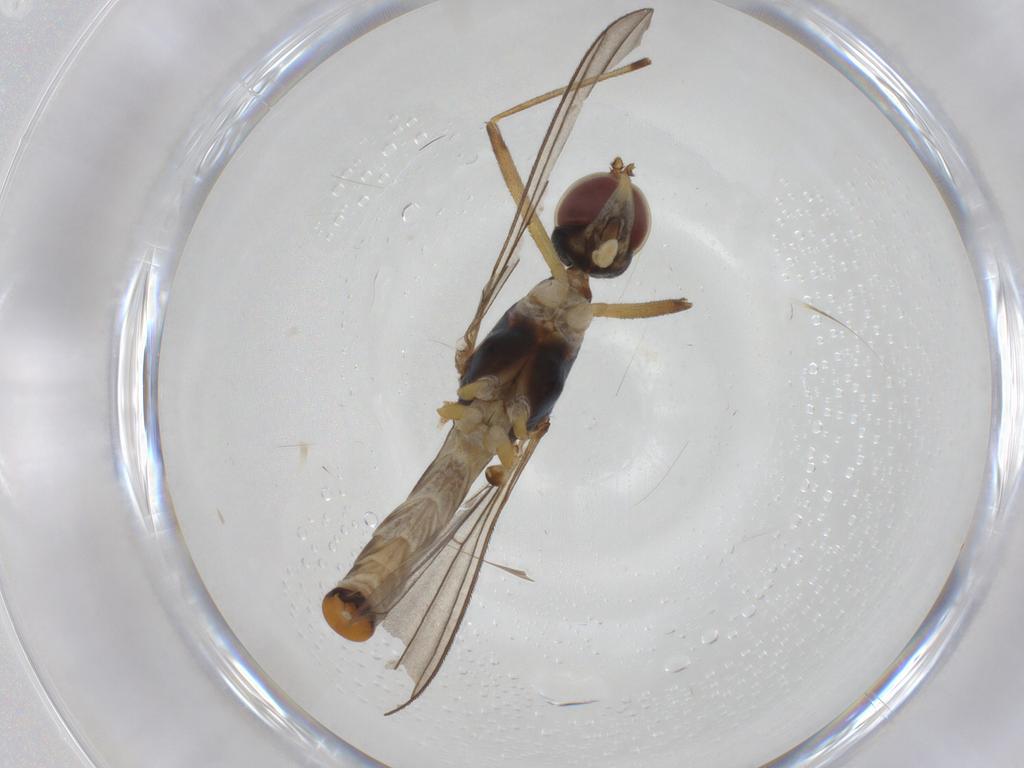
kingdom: Animalia
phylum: Arthropoda
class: Insecta
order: Diptera
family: Micropezidae
